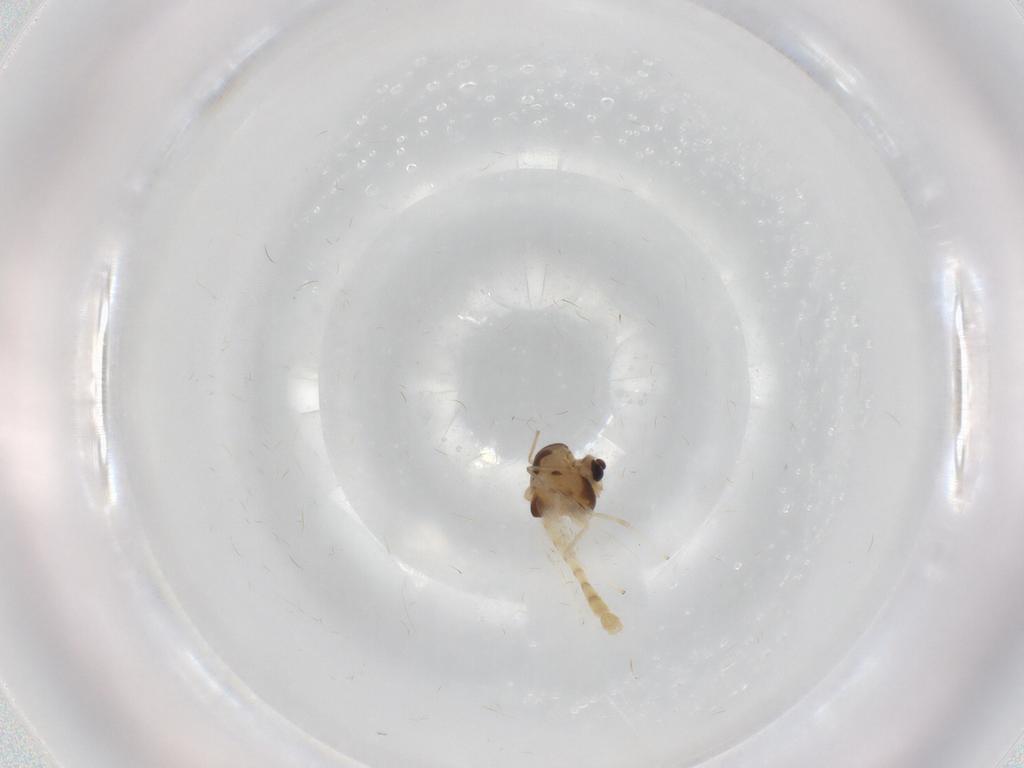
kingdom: Animalia
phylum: Arthropoda
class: Insecta
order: Diptera
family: Chironomidae
